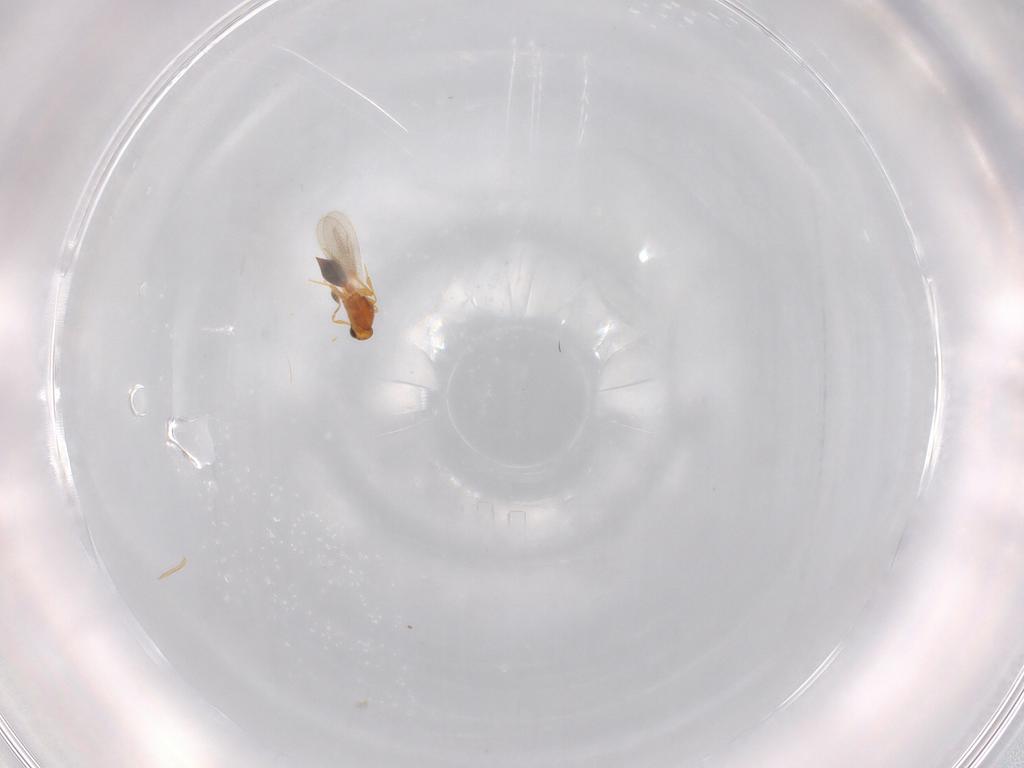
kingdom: Animalia
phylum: Arthropoda
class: Insecta
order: Hymenoptera
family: Platygastridae
